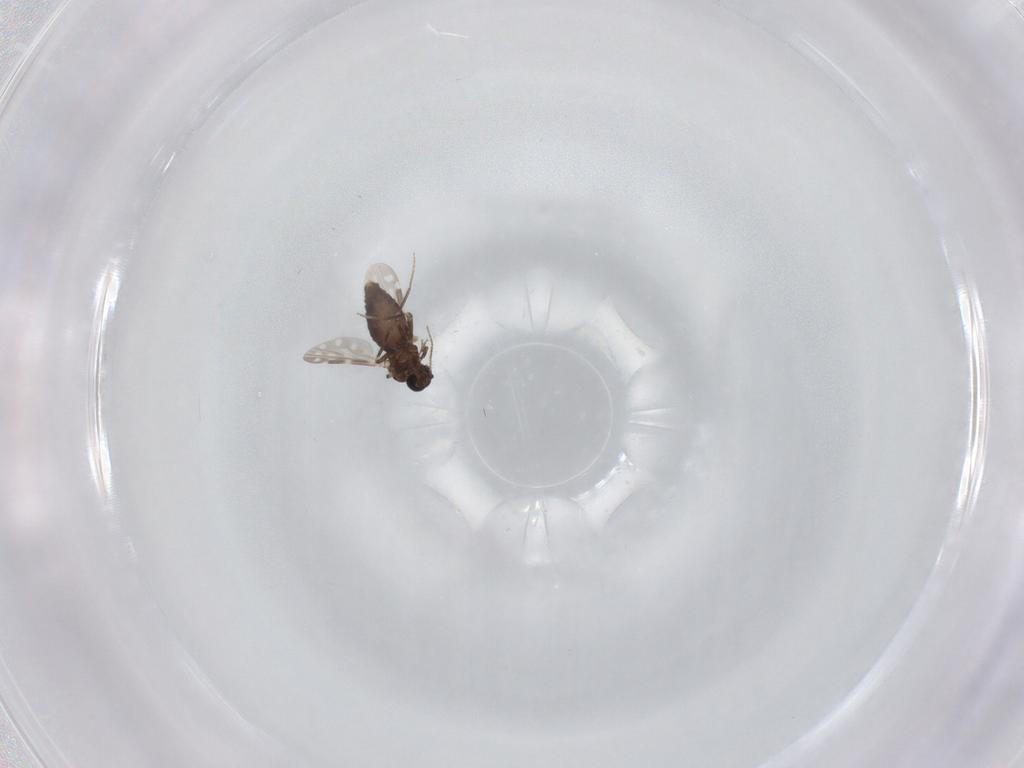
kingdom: Animalia
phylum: Arthropoda
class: Insecta
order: Diptera
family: Ceratopogonidae
